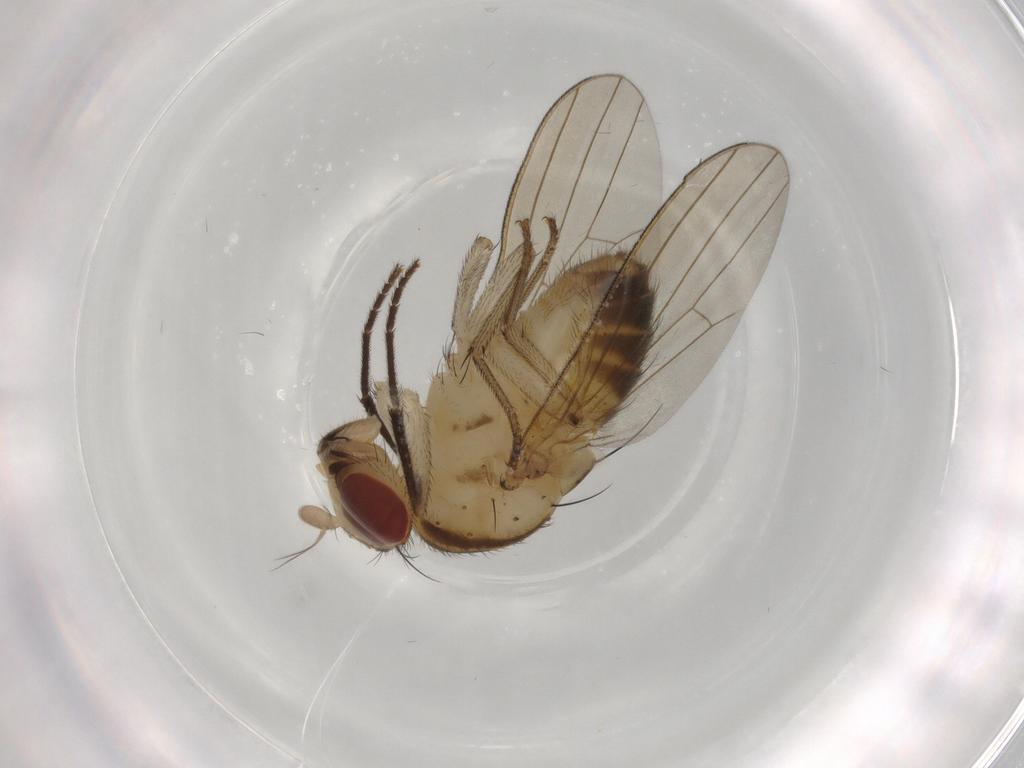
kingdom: Animalia
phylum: Arthropoda
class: Insecta
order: Diptera
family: Lauxaniidae
